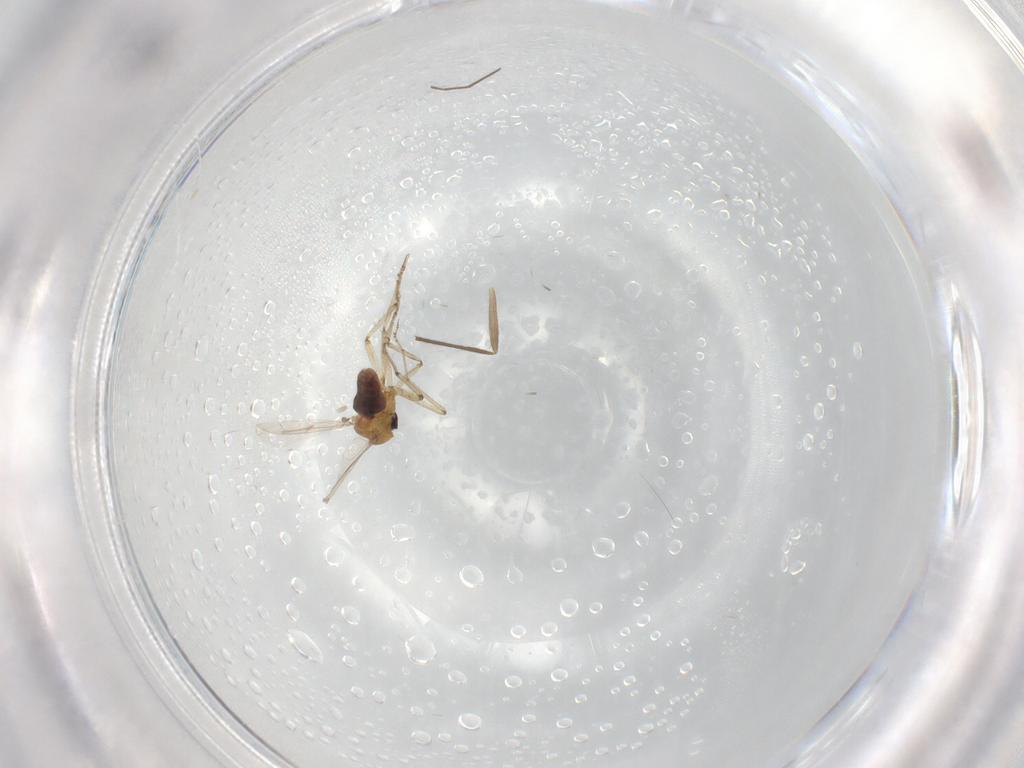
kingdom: Animalia
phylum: Arthropoda
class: Insecta
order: Diptera
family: Ceratopogonidae
